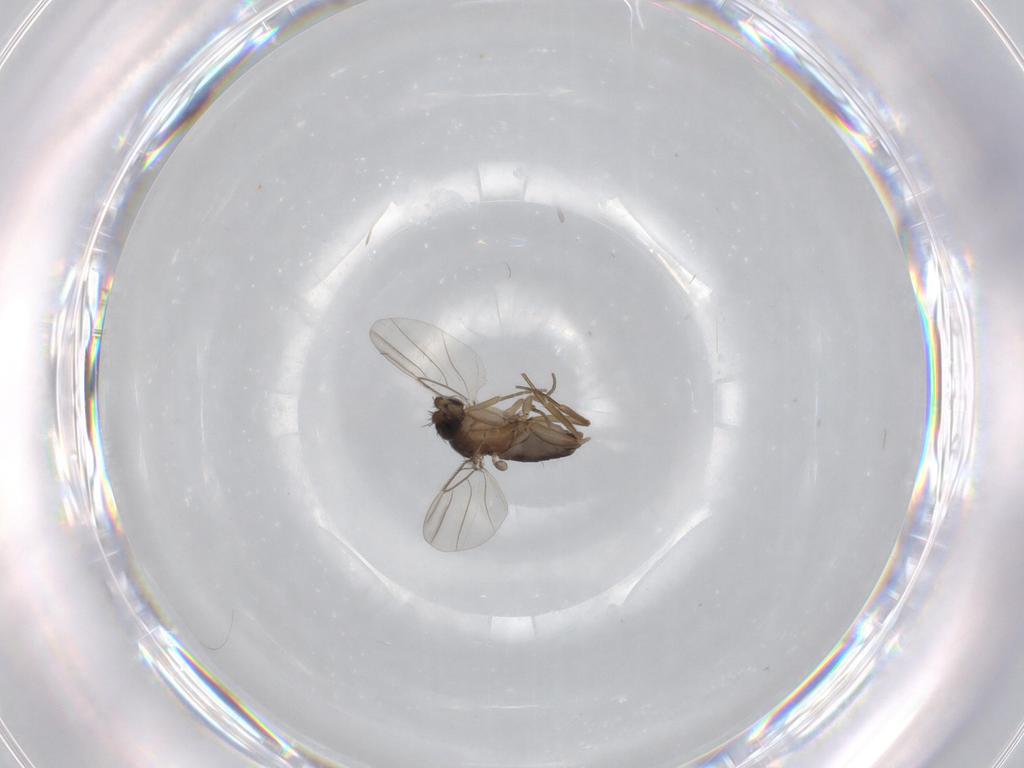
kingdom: Animalia
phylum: Arthropoda
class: Insecta
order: Diptera
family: Phoridae
